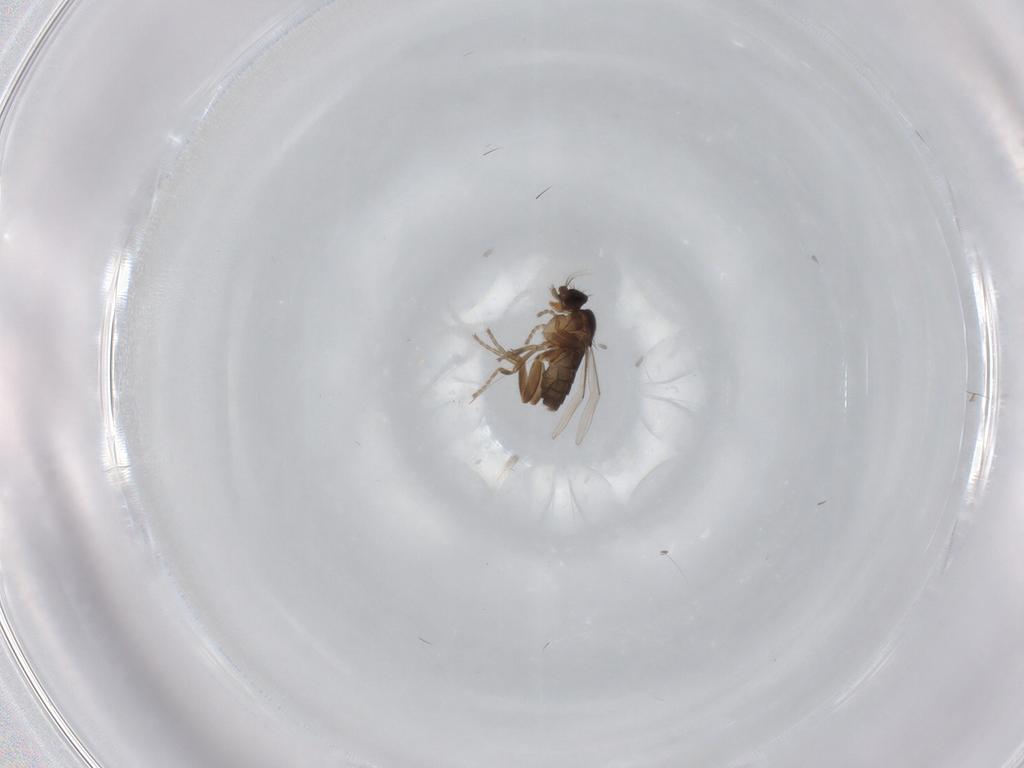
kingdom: Animalia
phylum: Arthropoda
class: Insecta
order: Diptera
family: Phoridae
